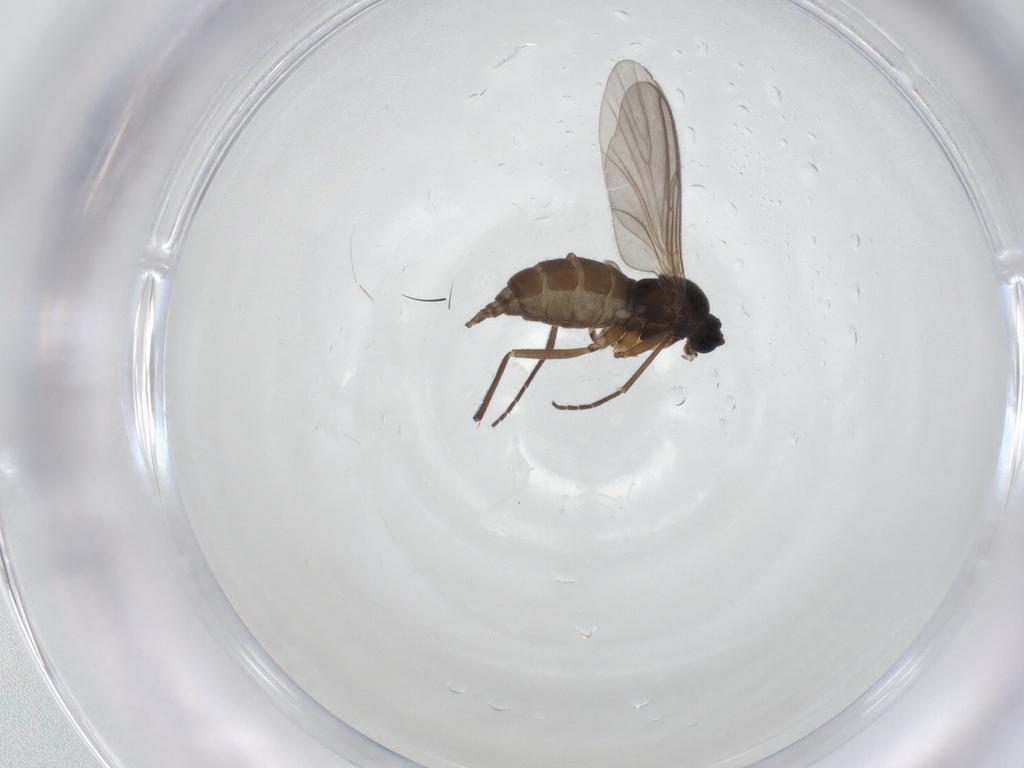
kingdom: Animalia
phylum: Arthropoda
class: Insecta
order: Diptera
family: Sciaridae
